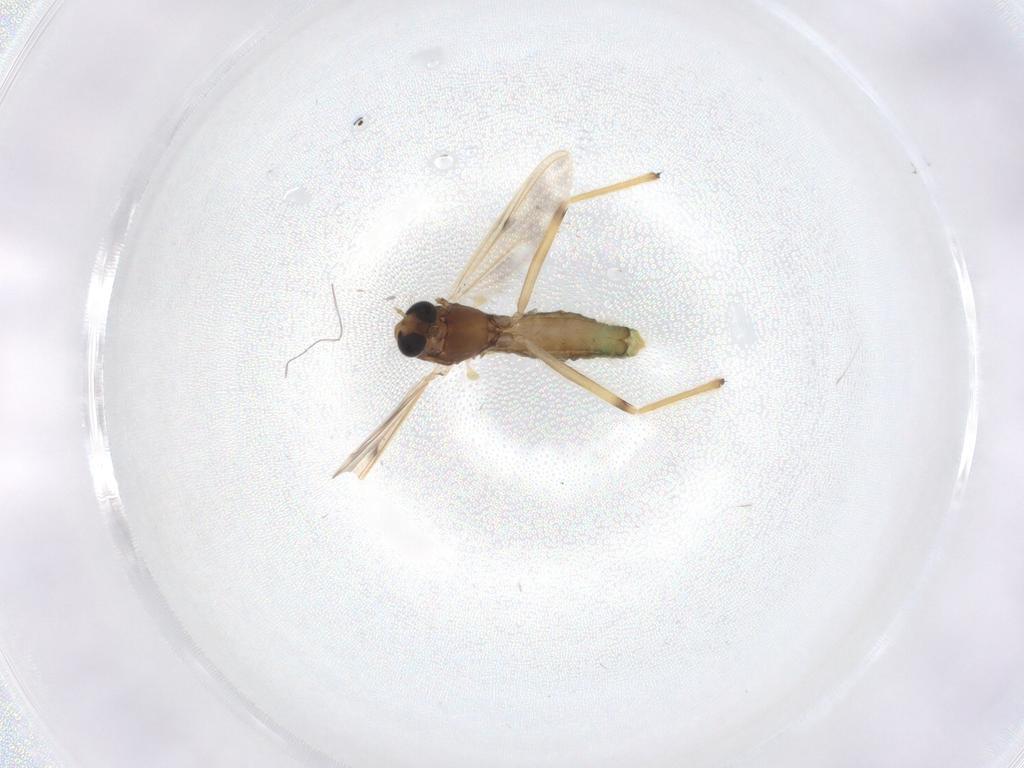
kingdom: Animalia
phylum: Arthropoda
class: Insecta
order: Diptera
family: Chironomidae
